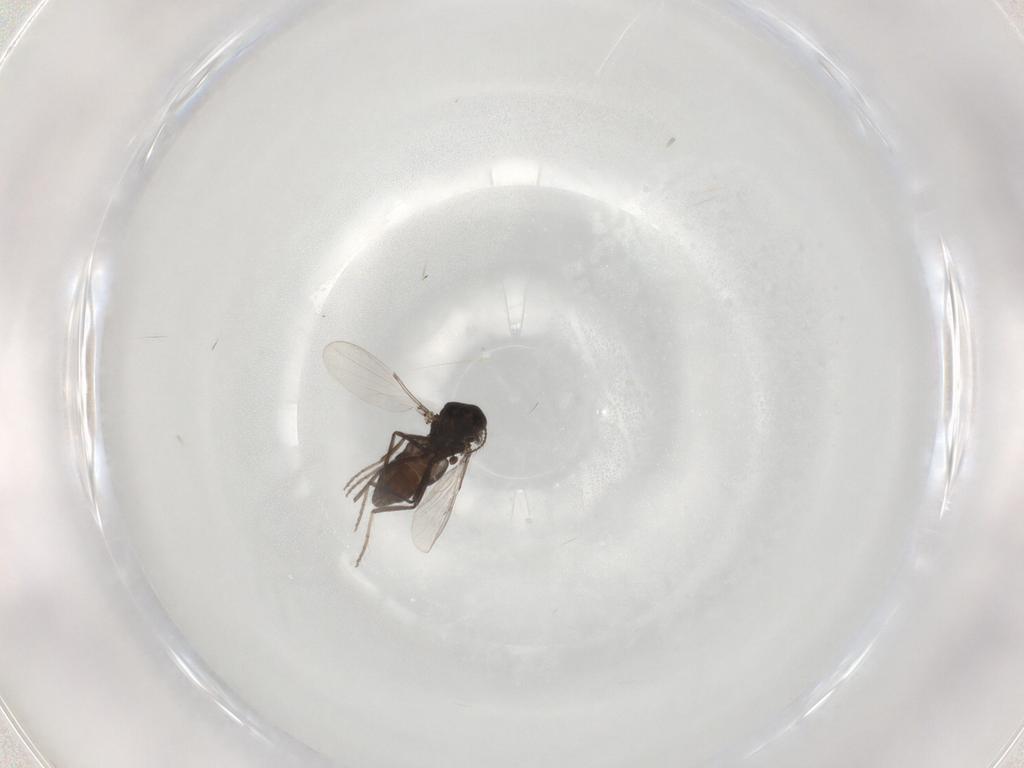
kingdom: Animalia
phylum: Arthropoda
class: Insecta
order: Diptera
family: Ceratopogonidae
